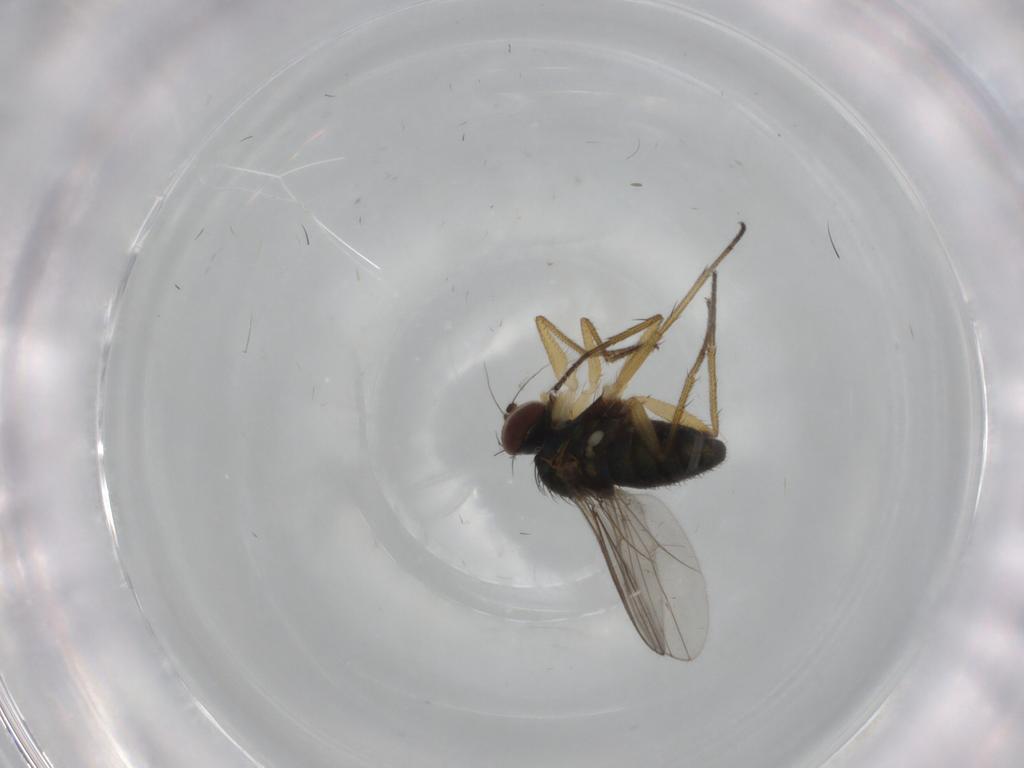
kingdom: Animalia
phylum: Arthropoda
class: Insecta
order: Diptera
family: Dolichopodidae
